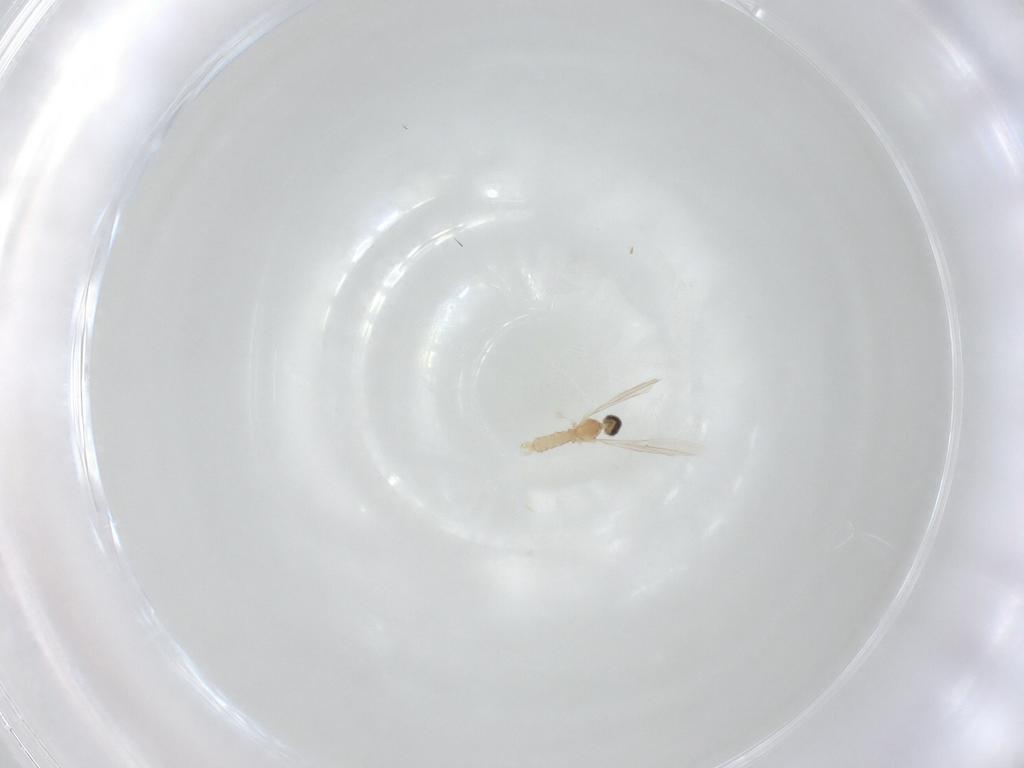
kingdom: Animalia
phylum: Arthropoda
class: Insecta
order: Diptera
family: Cecidomyiidae
